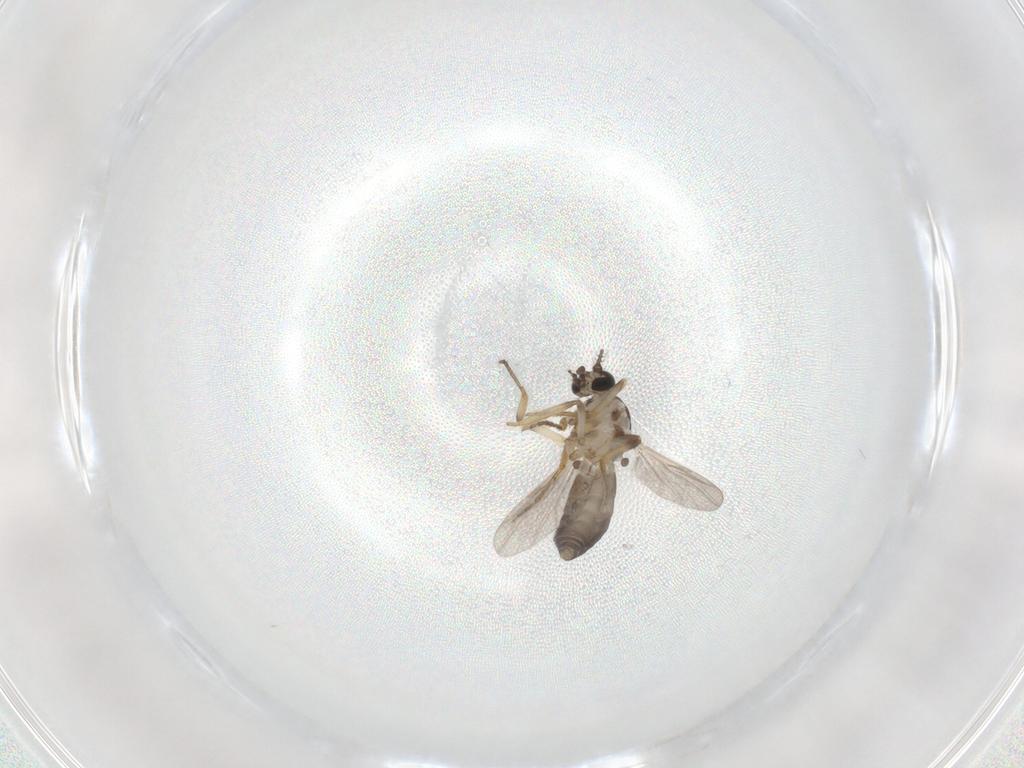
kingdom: Animalia
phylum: Arthropoda
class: Insecta
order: Diptera
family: Ceratopogonidae
